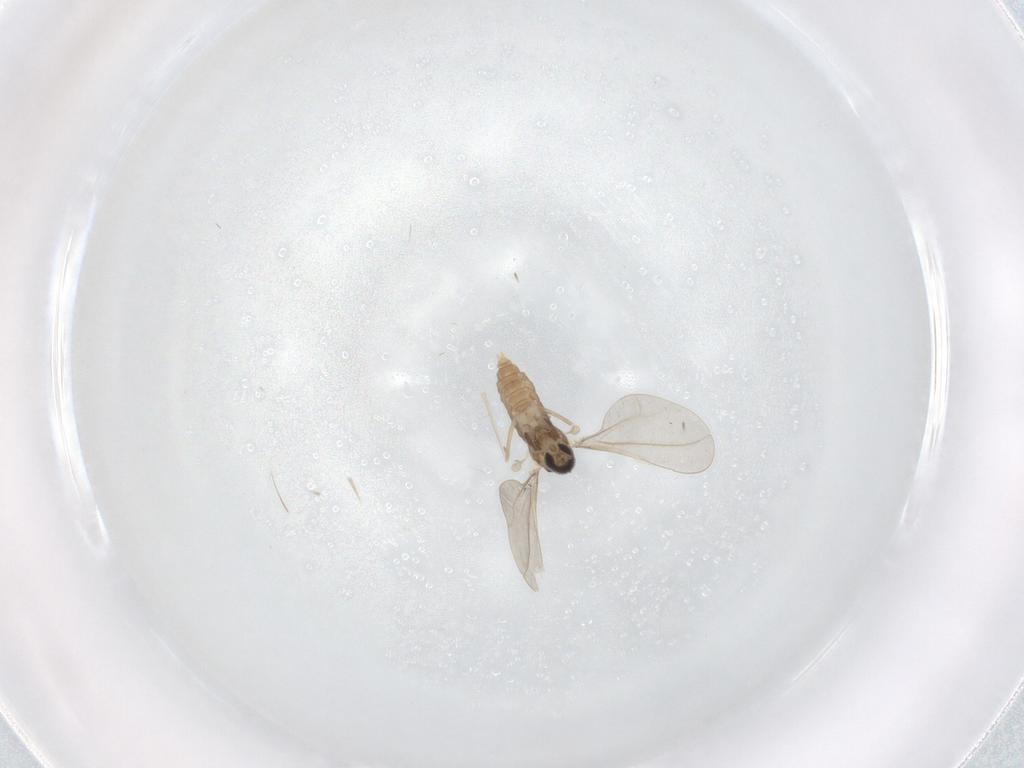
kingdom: Animalia
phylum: Arthropoda
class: Insecta
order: Diptera
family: Cecidomyiidae
